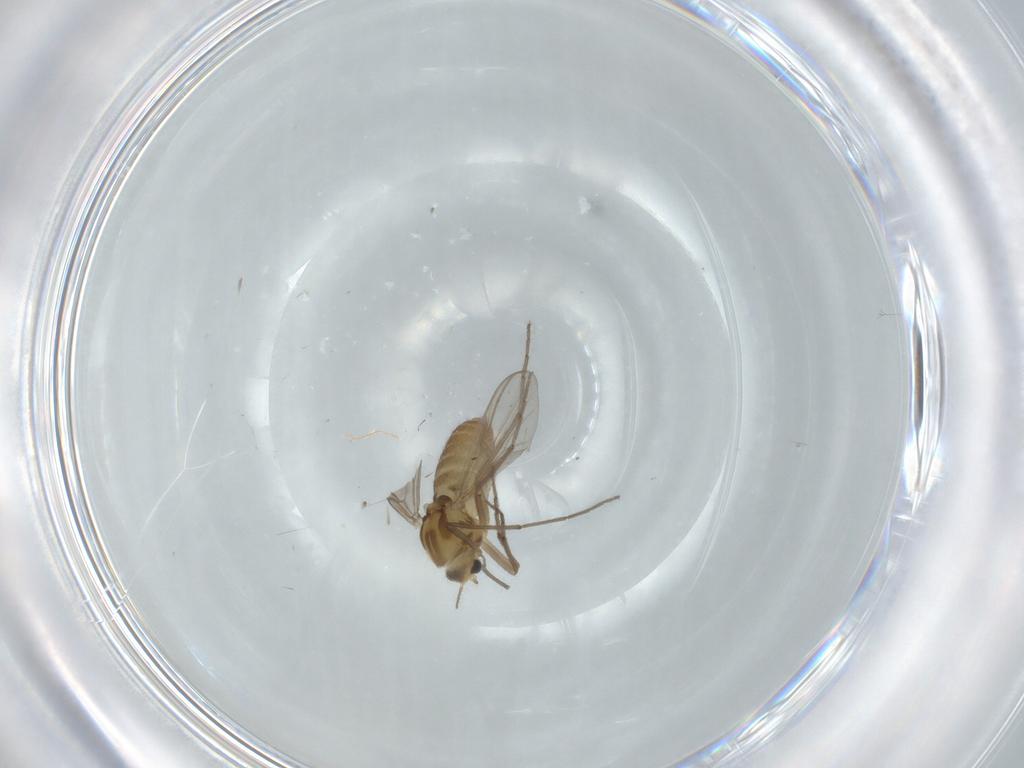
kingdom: Animalia
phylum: Arthropoda
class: Insecta
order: Diptera
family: Chironomidae
